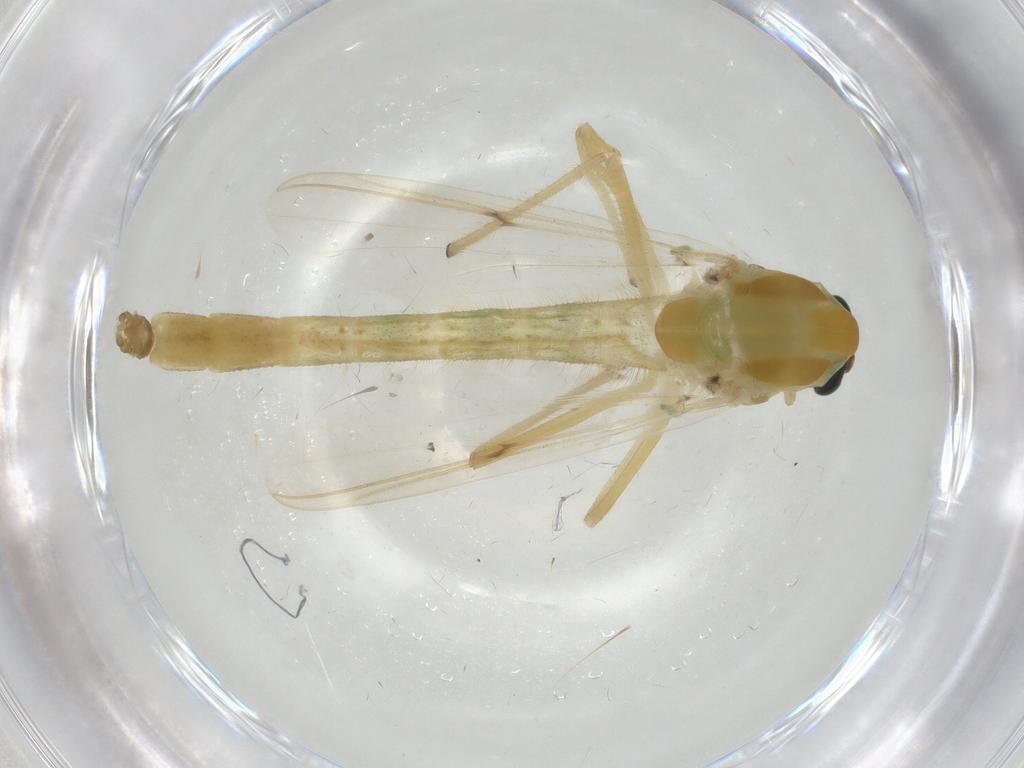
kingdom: Animalia
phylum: Arthropoda
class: Insecta
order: Diptera
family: Chironomidae
